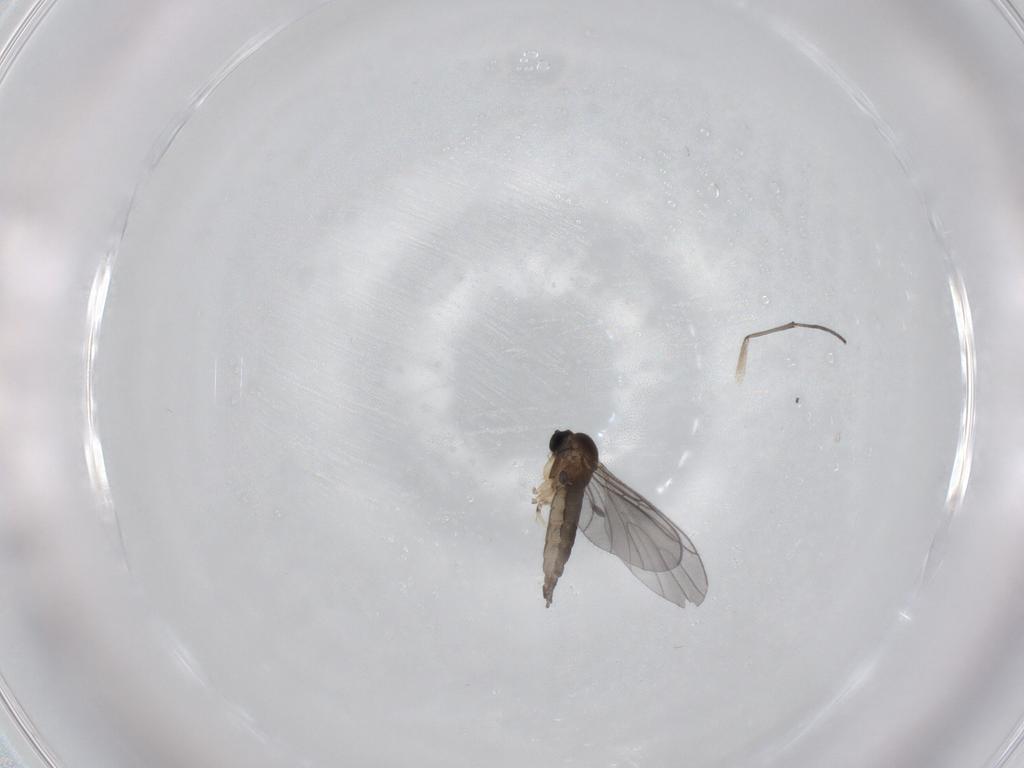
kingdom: Animalia
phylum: Arthropoda
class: Insecta
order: Diptera
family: Sciaridae
